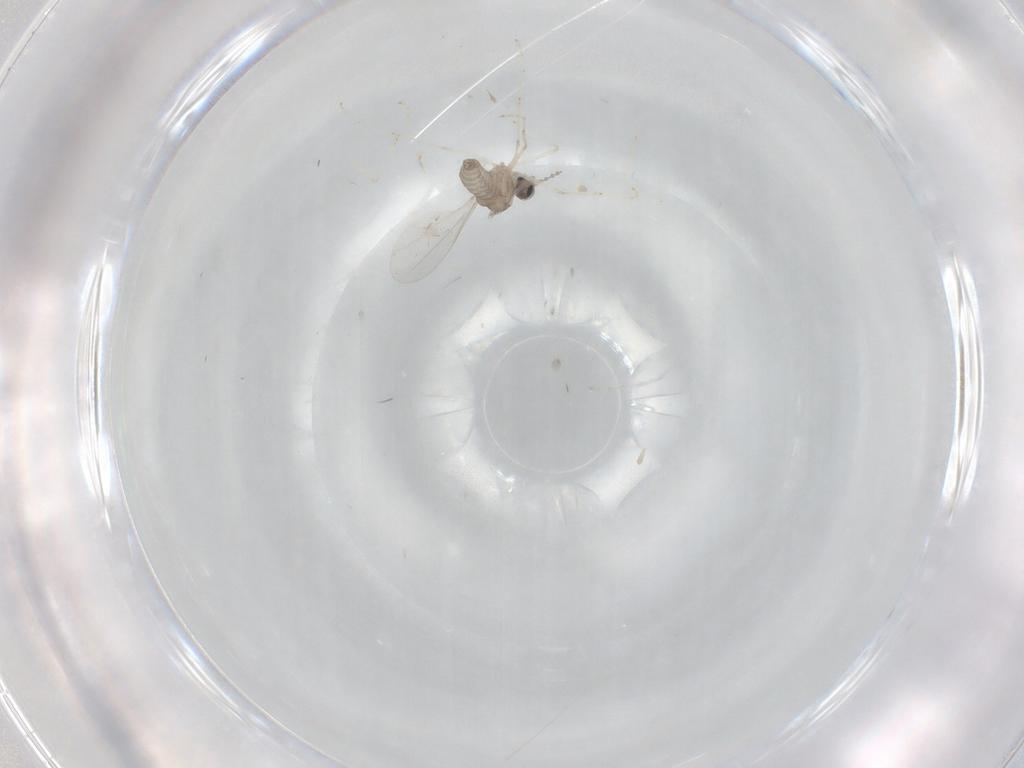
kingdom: Animalia
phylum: Arthropoda
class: Insecta
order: Diptera
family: Cecidomyiidae
